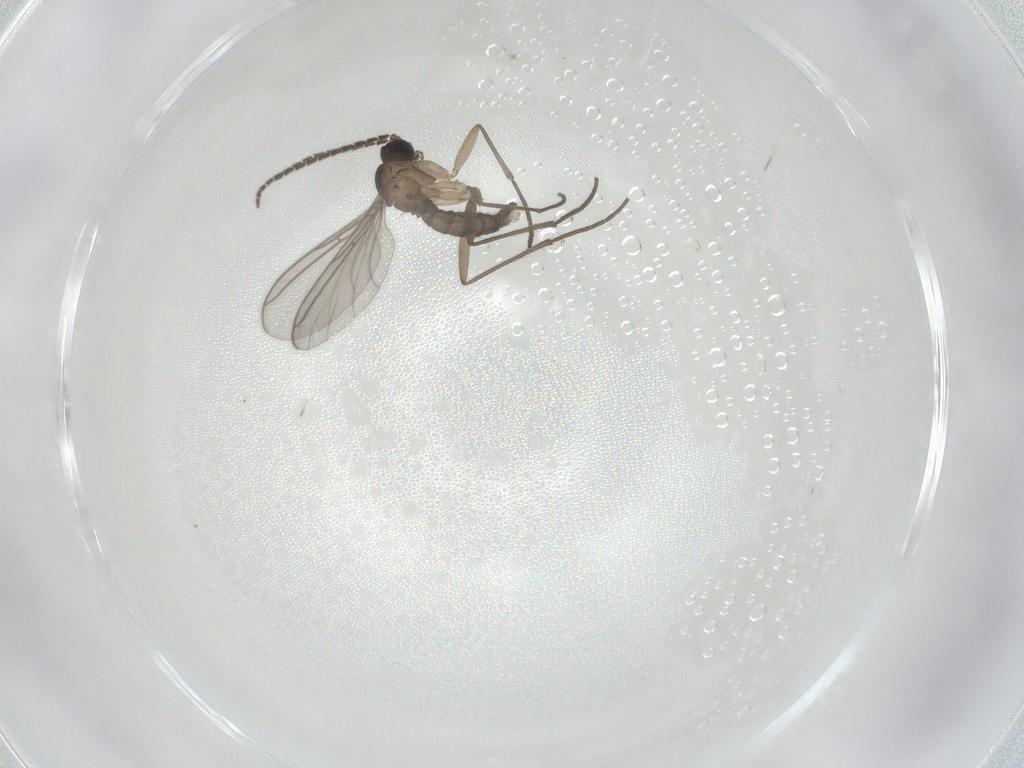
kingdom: Animalia
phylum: Arthropoda
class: Insecta
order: Diptera
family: Sciaridae
